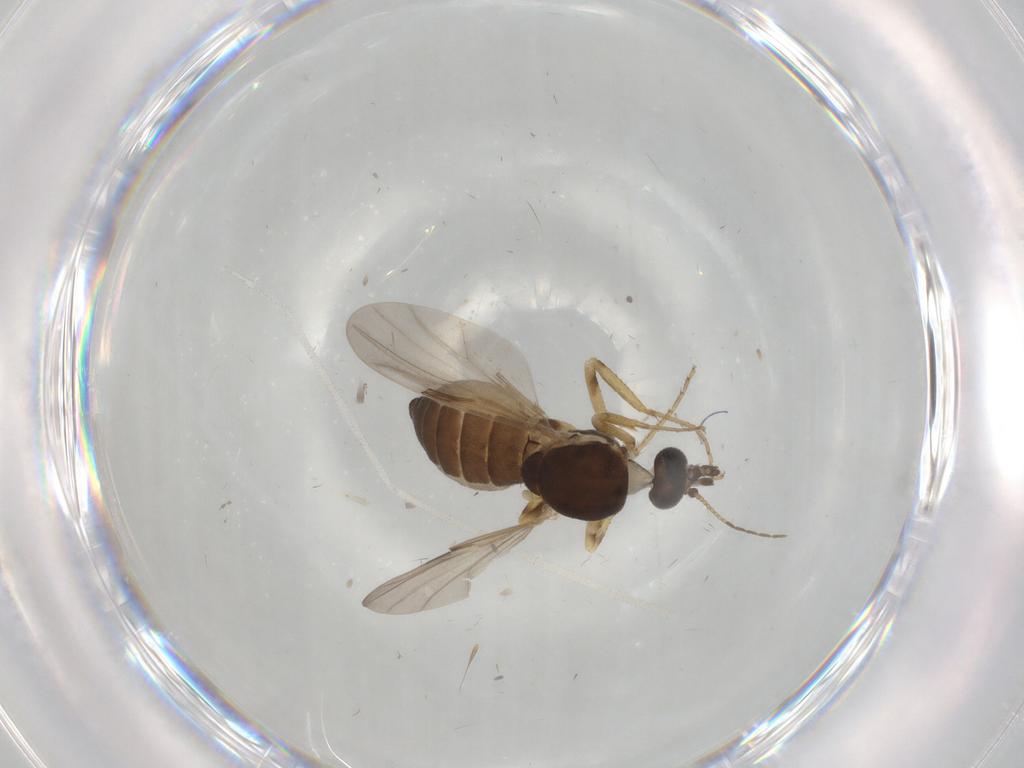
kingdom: Animalia
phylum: Arthropoda
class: Insecta
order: Diptera
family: Ceratopogonidae
